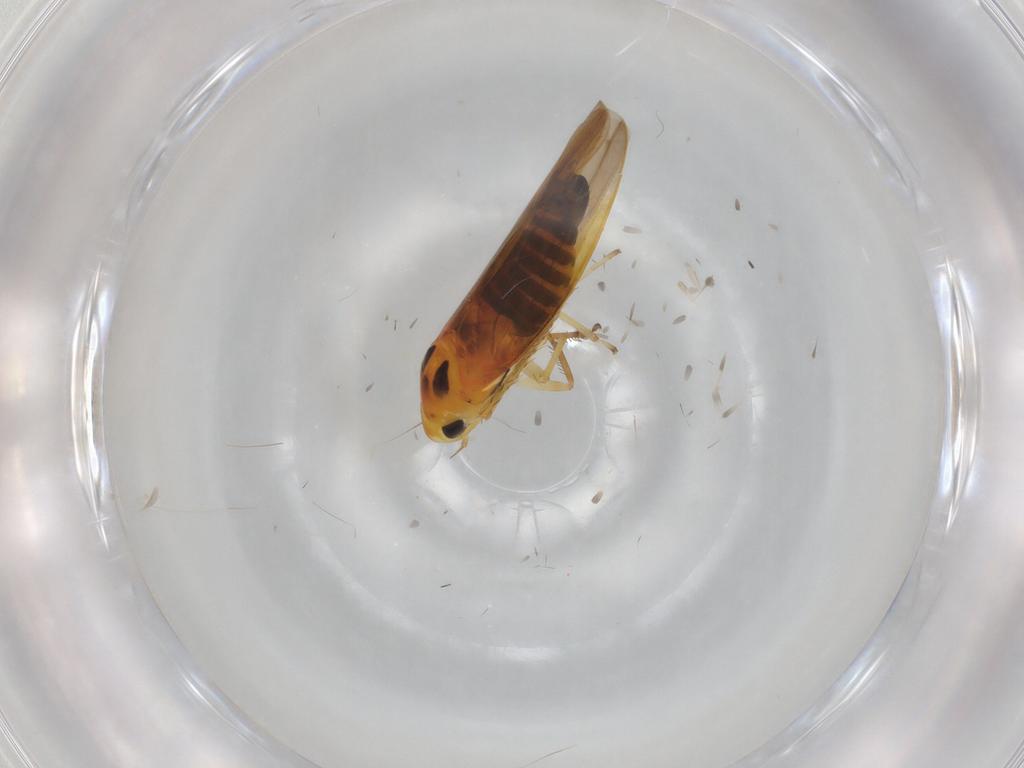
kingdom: Animalia
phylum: Arthropoda
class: Insecta
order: Hemiptera
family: Cicadellidae
